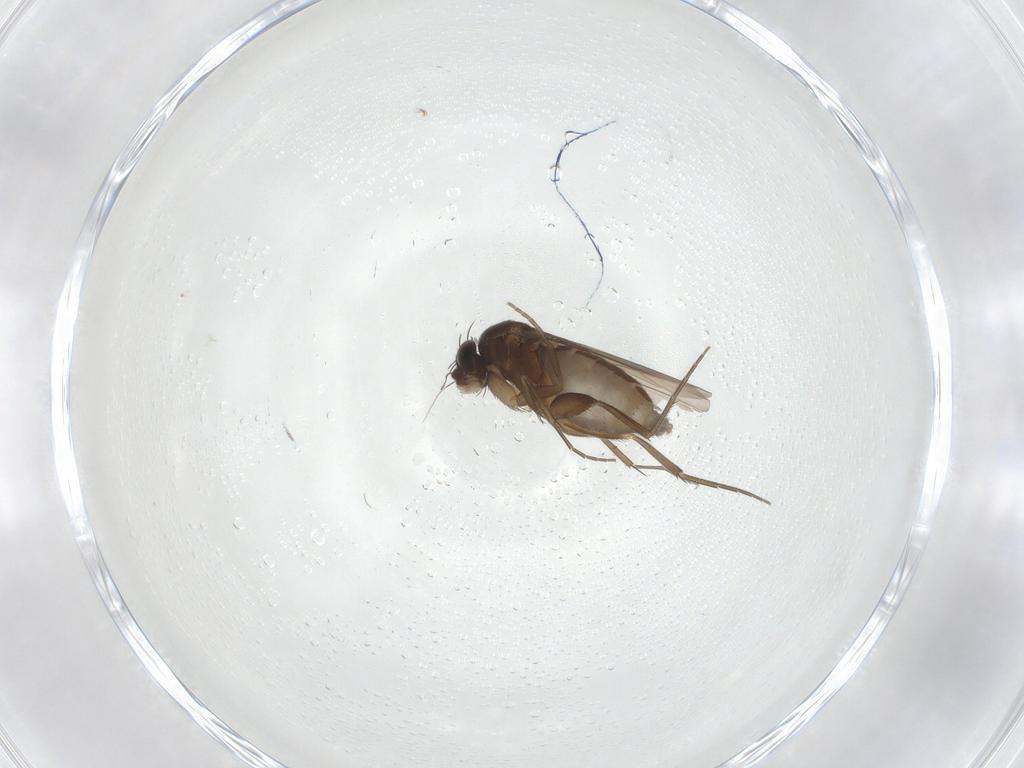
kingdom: Animalia
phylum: Arthropoda
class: Insecta
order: Diptera
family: Phoridae
